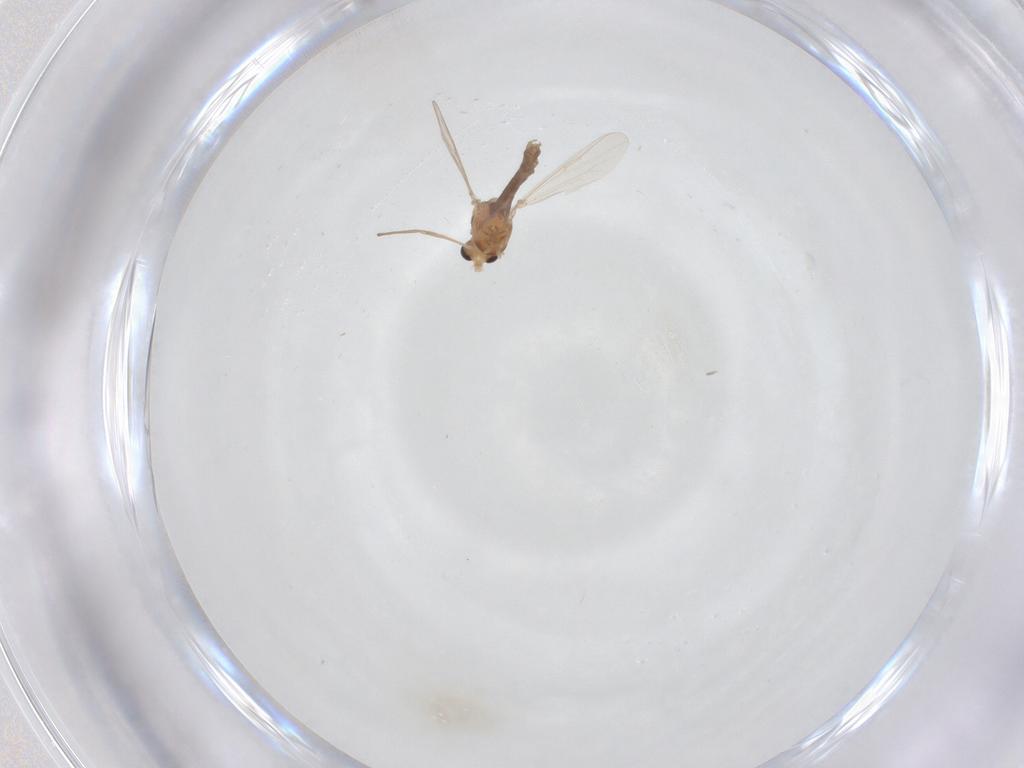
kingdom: Animalia
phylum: Arthropoda
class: Insecta
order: Diptera
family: Chironomidae
